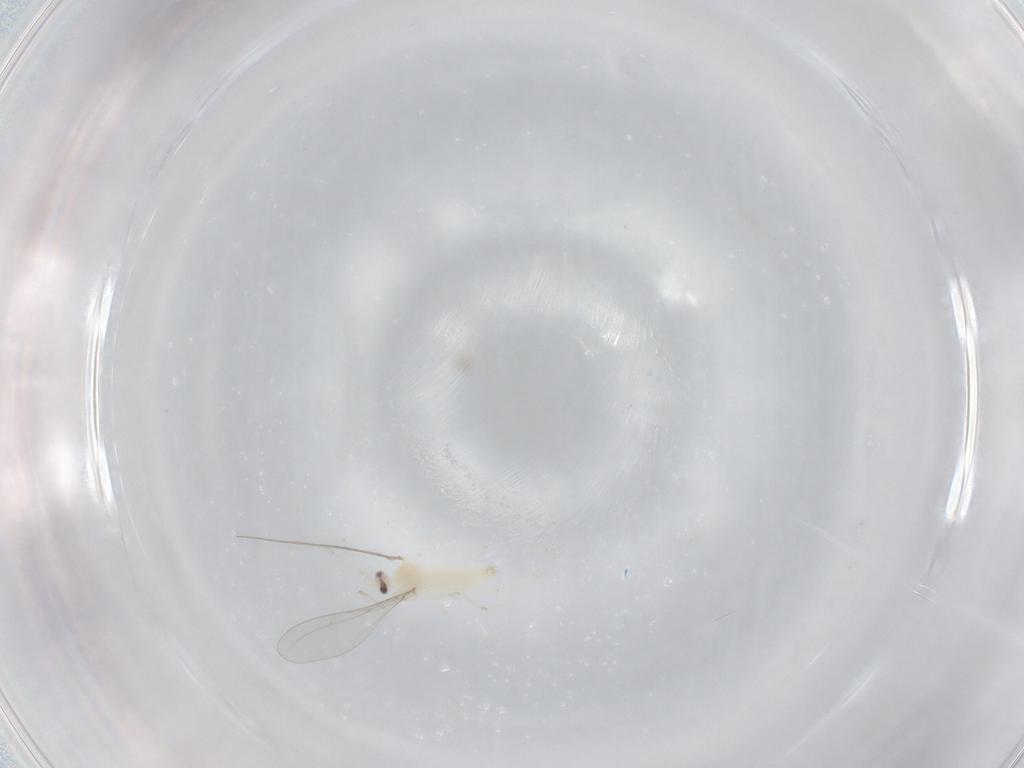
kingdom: Animalia
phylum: Arthropoda
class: Insecta
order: Diptera
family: Cecidomyiidae
